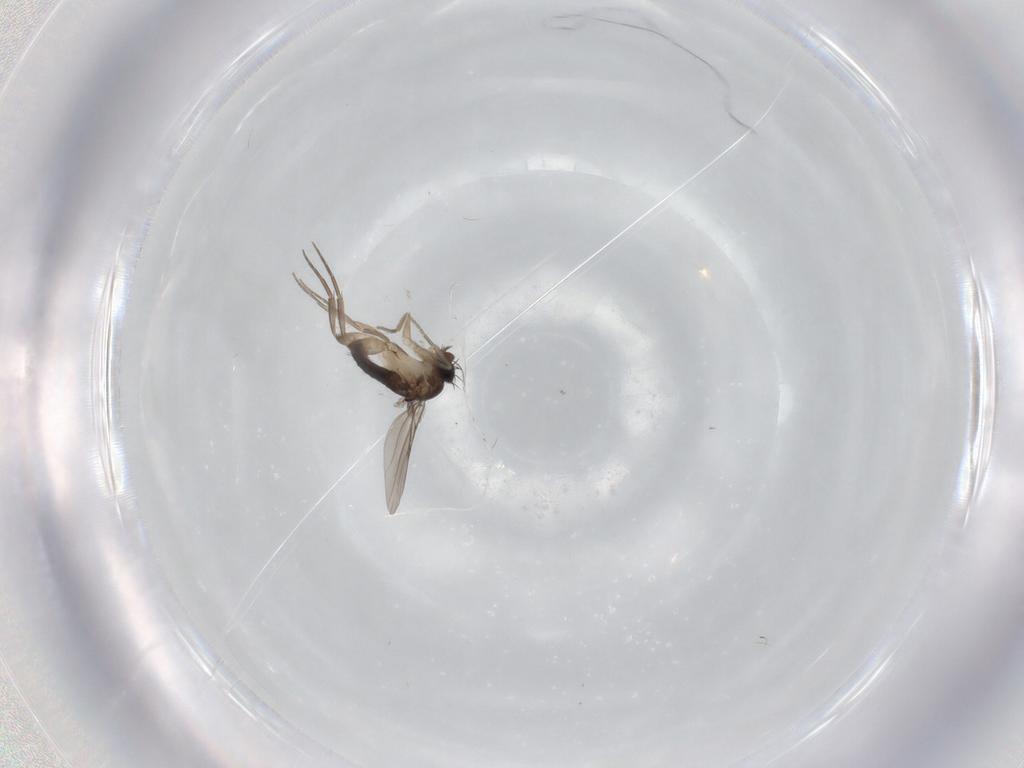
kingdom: Animalia
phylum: Arthropoda
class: Insecta
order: Diptera
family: Phoridae
